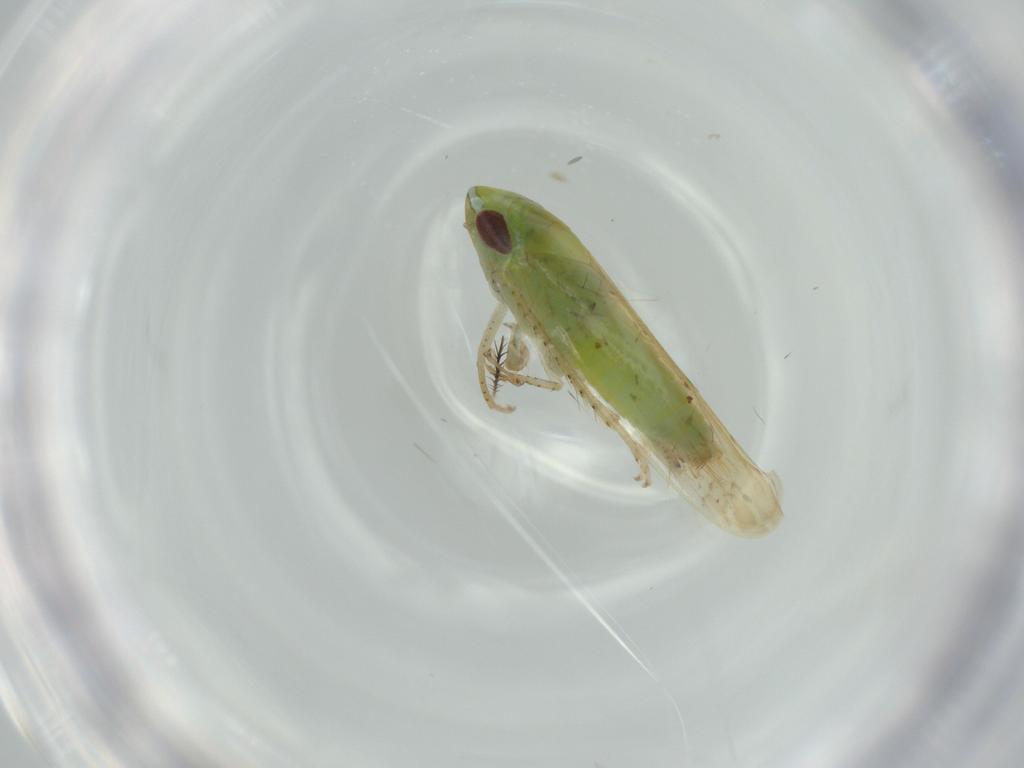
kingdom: Animalia
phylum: Arthropoda
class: Insecta
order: Hemiptera
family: Cicadellidae
